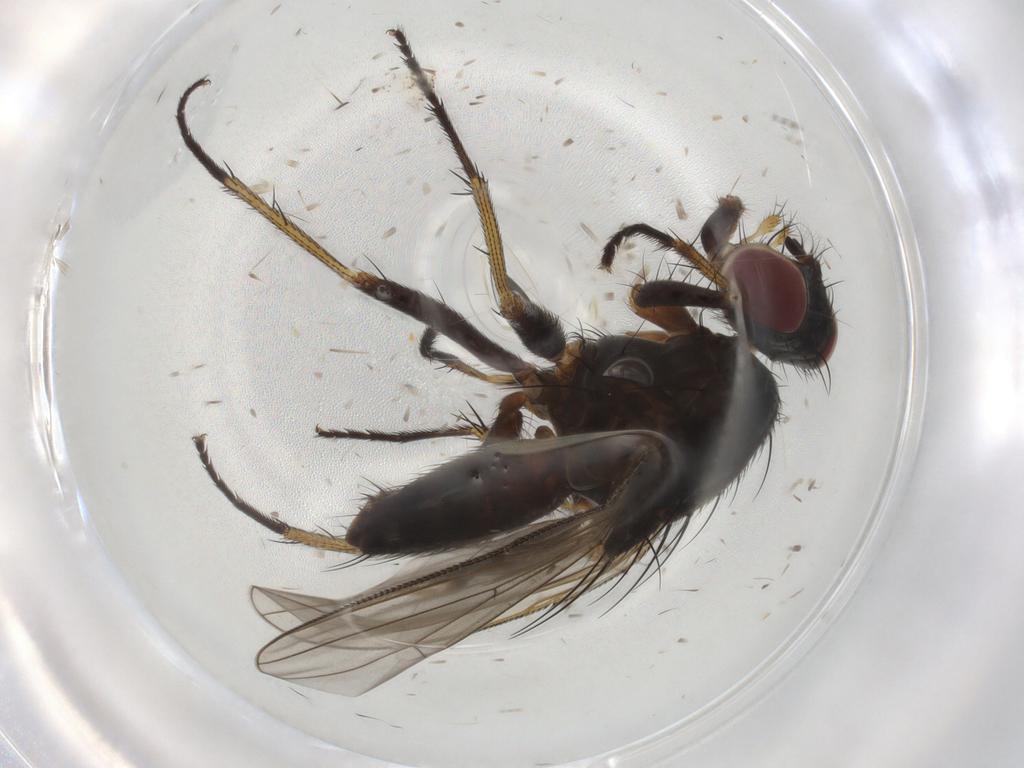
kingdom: Animalia
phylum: Arthropoda
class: Insecta
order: Diptera
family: Muscidae
